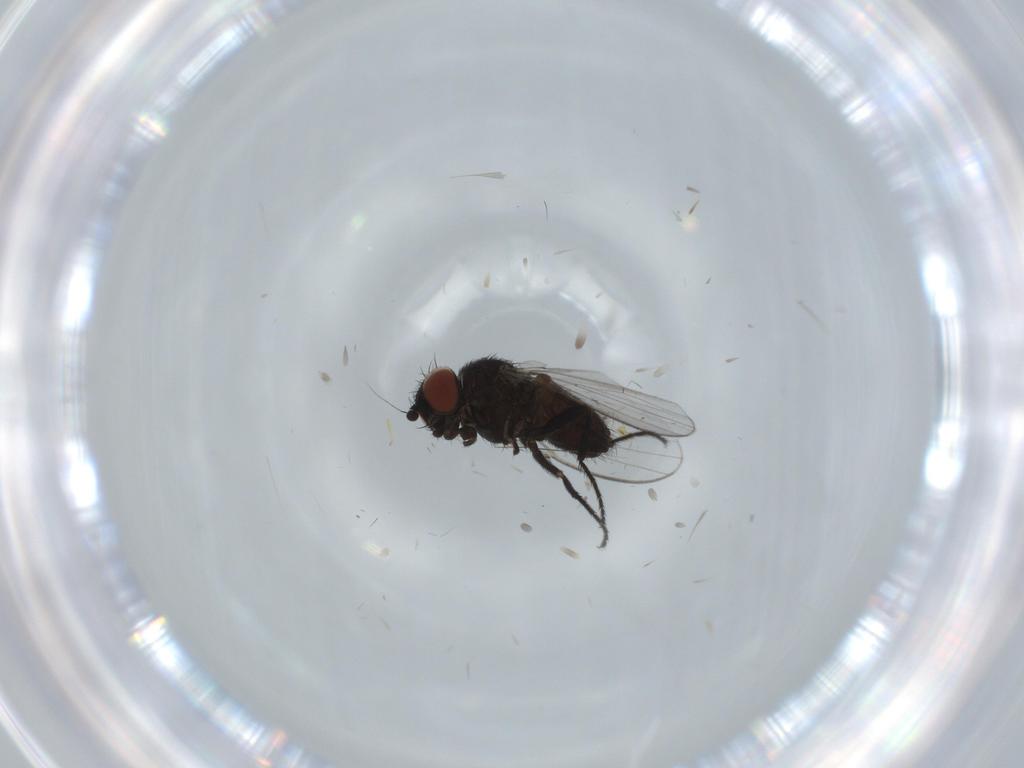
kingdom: Animalia
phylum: Arthropoda
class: Insecta
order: Diptera
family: Milichiidae
